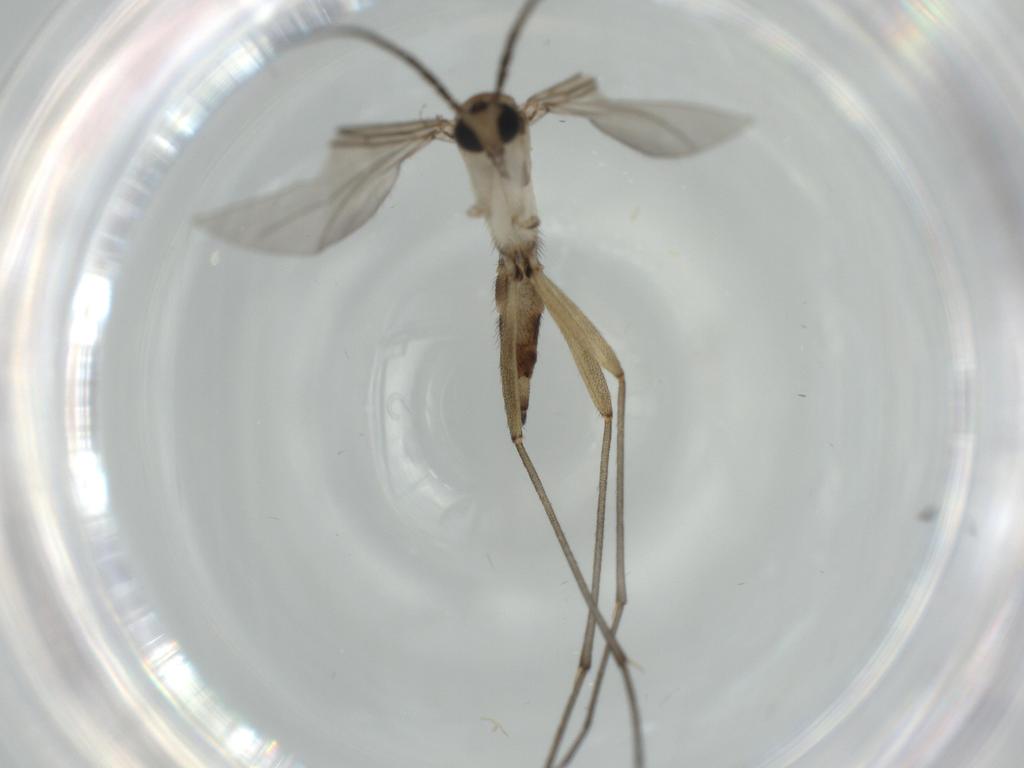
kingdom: Animalia
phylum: Arthropoda
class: Insecta
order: Diptera
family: Sciaridae
